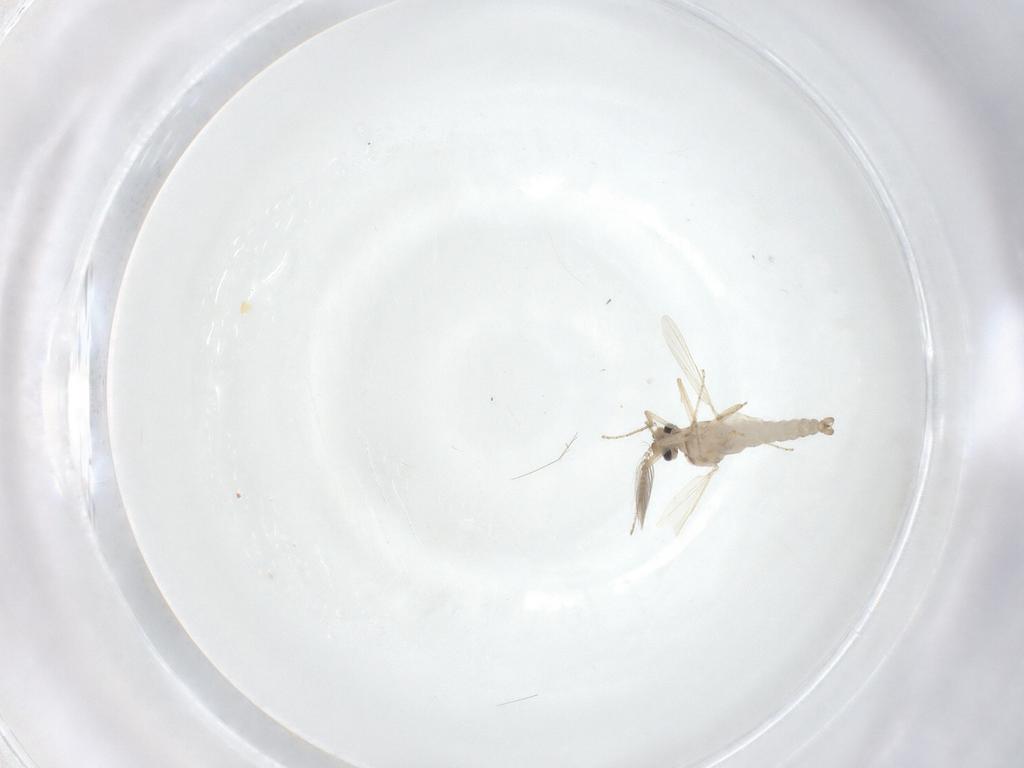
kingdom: Animalia
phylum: Arthropoda
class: Insecta
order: Diptera
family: Ceratopogonidae
